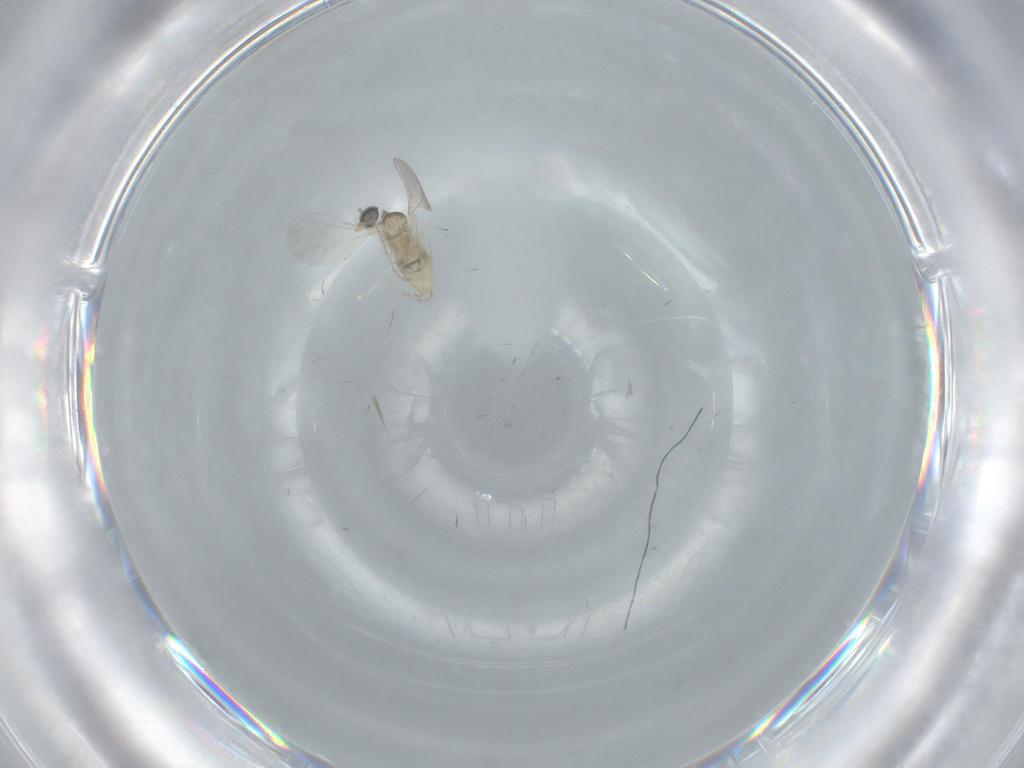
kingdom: Animalia
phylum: Arthropoda
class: Insecta
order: Diptera
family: Cecidomyiidae
